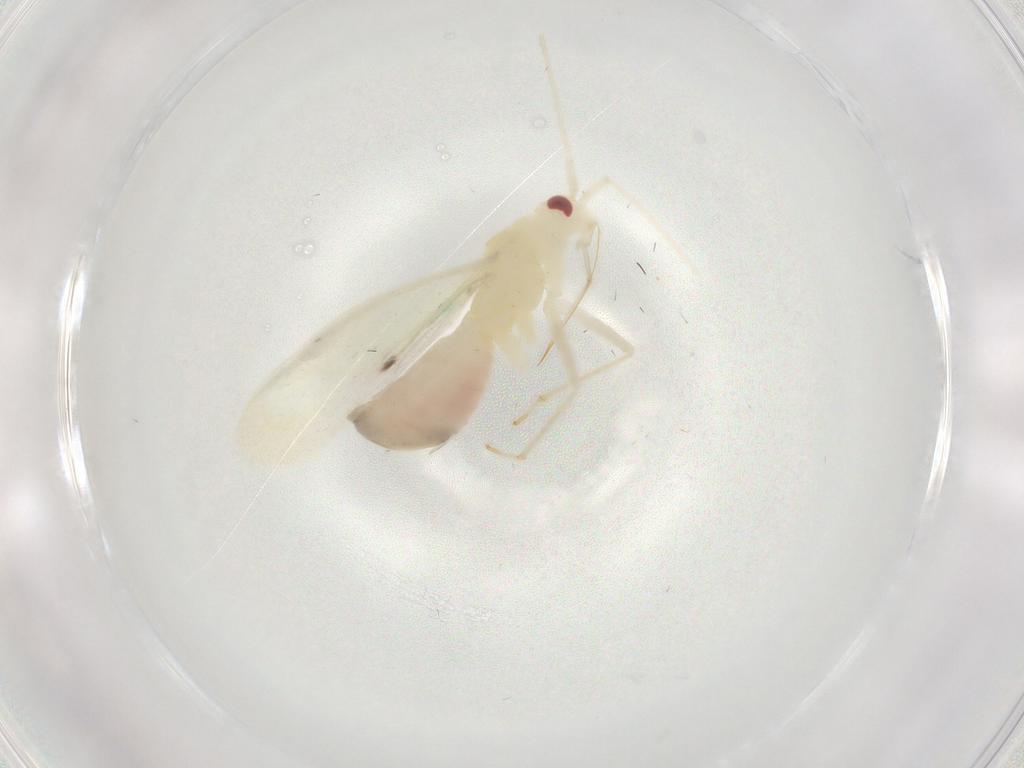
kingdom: Animalia
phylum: Arthropoda
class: Insecta
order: Hemiptera
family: Miridae
